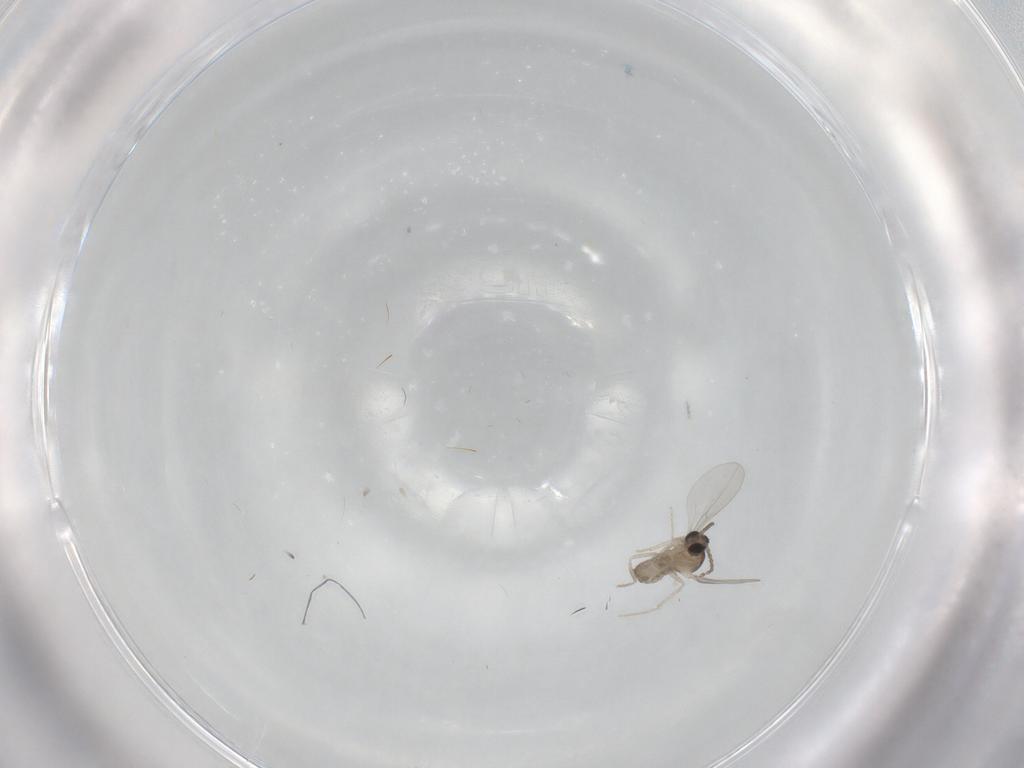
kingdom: Animalia
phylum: Arthropoda
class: Insecta
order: Diptera
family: Cecidomyiidae
